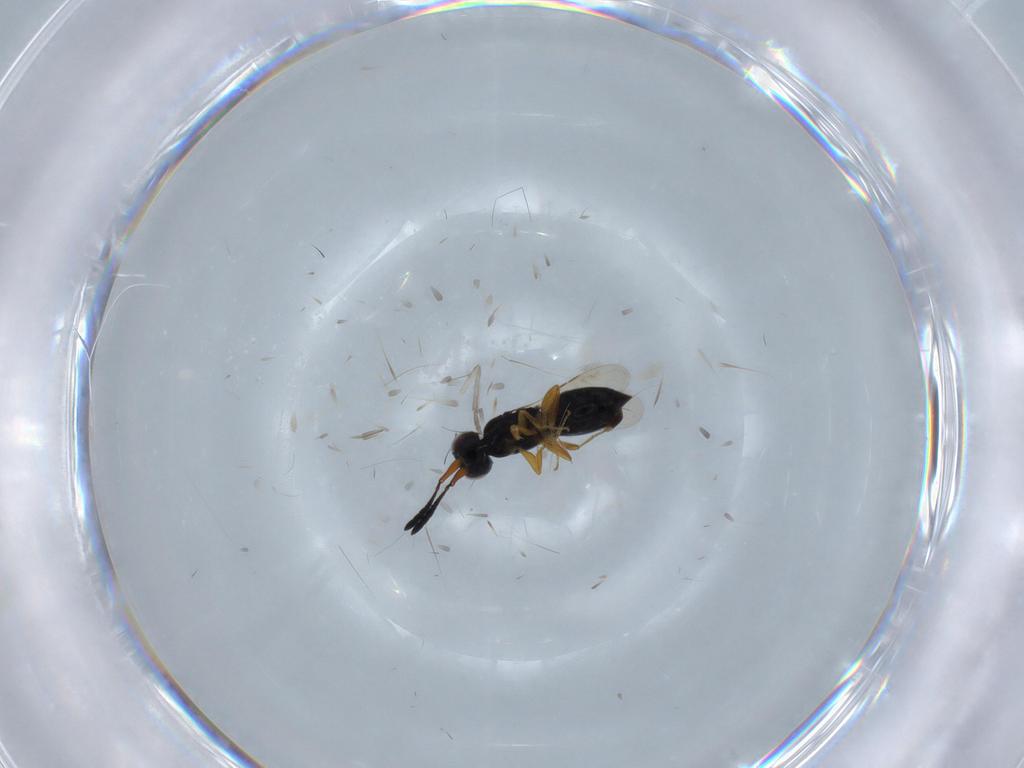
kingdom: Animalia
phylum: Arthropoda
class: Insecta
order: Hymenoptera
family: Ceraphronidae
